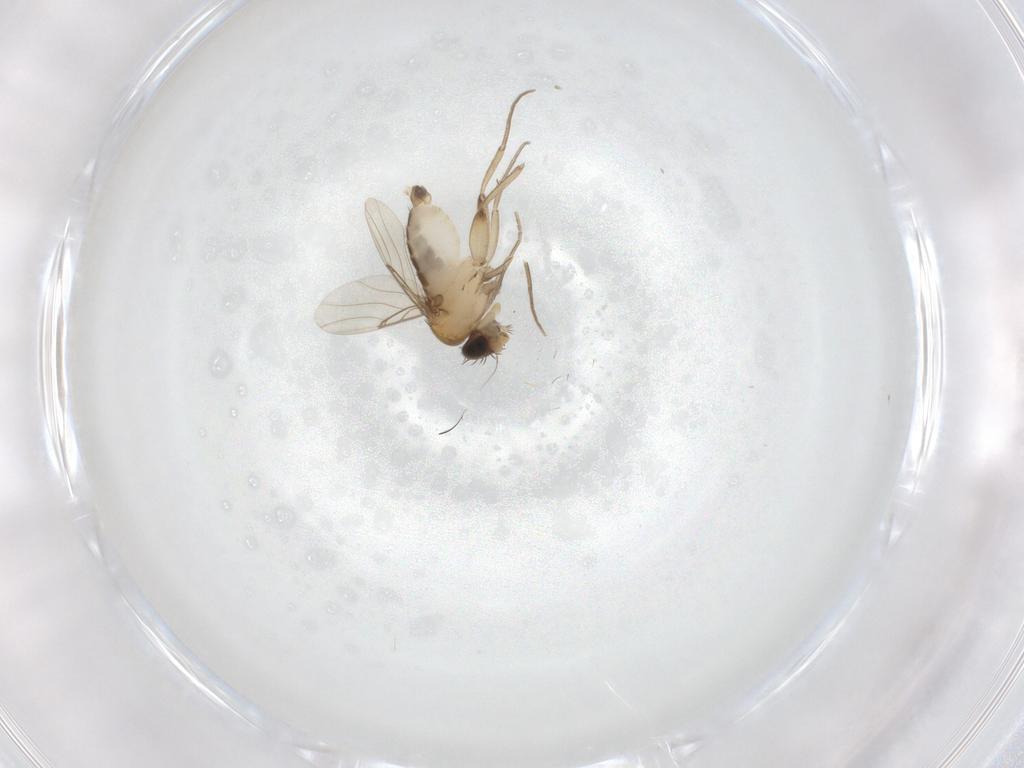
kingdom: Animalia
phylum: Arthropoda
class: Insecta
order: Diptera
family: Phoridae
